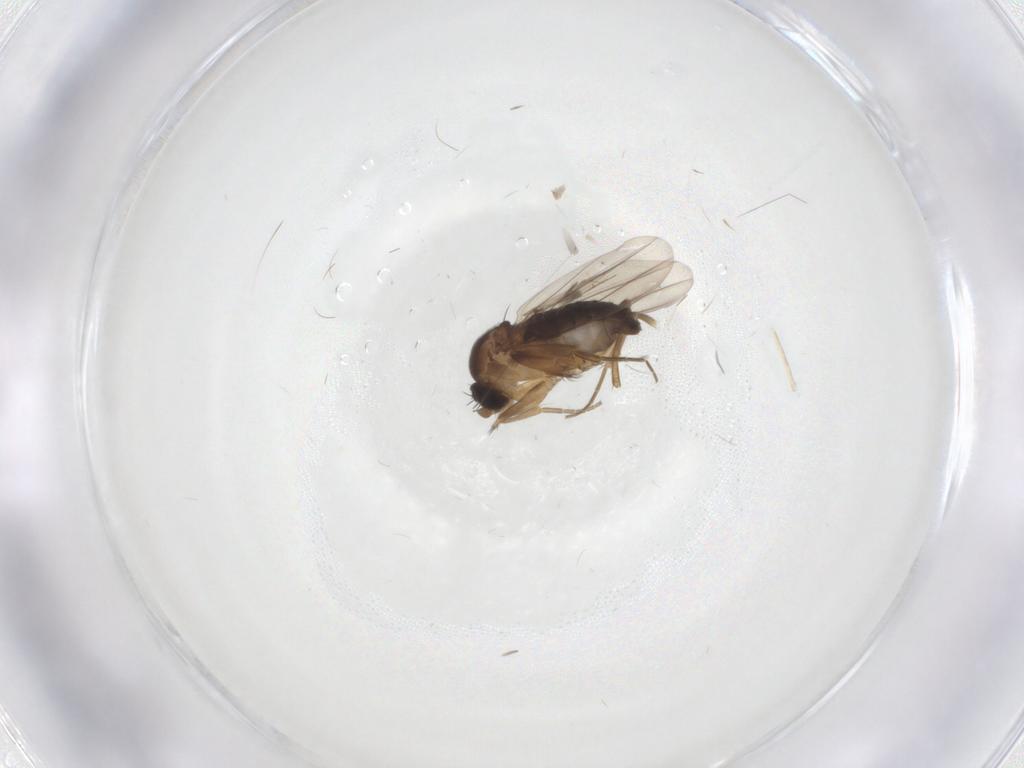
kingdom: Animalia
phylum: Arthropoda
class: Insecta
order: Diptera
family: Phoridae
